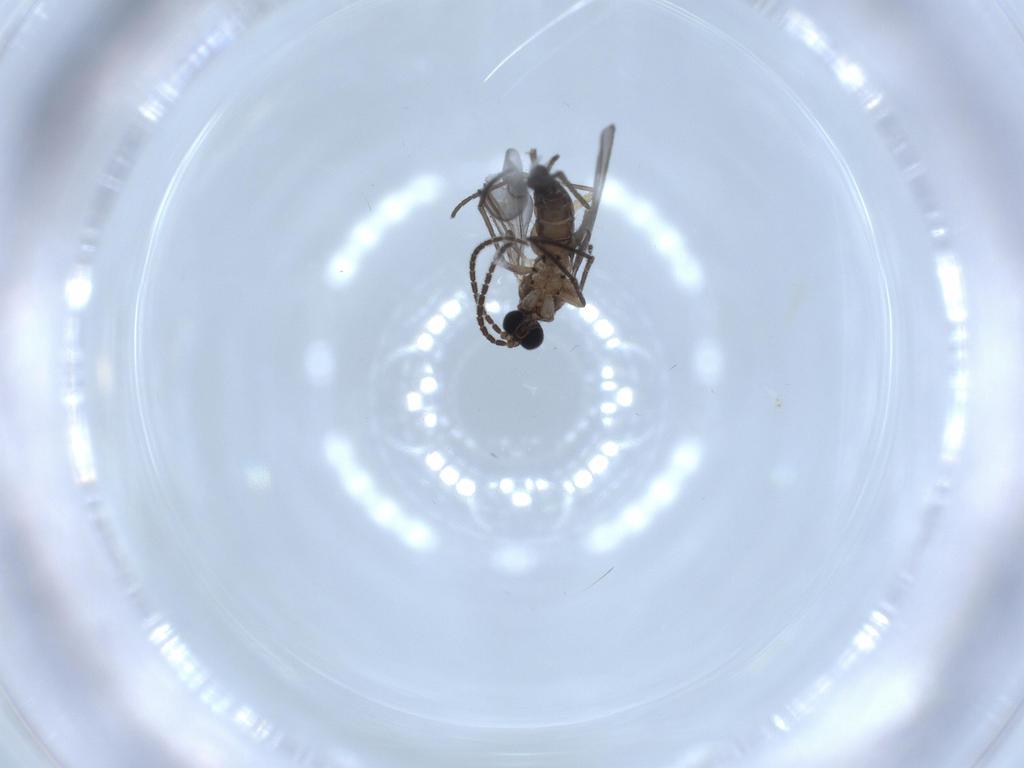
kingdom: Animalia
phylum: Arthropoda
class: Insecta
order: Diptera
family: Sciaridae
